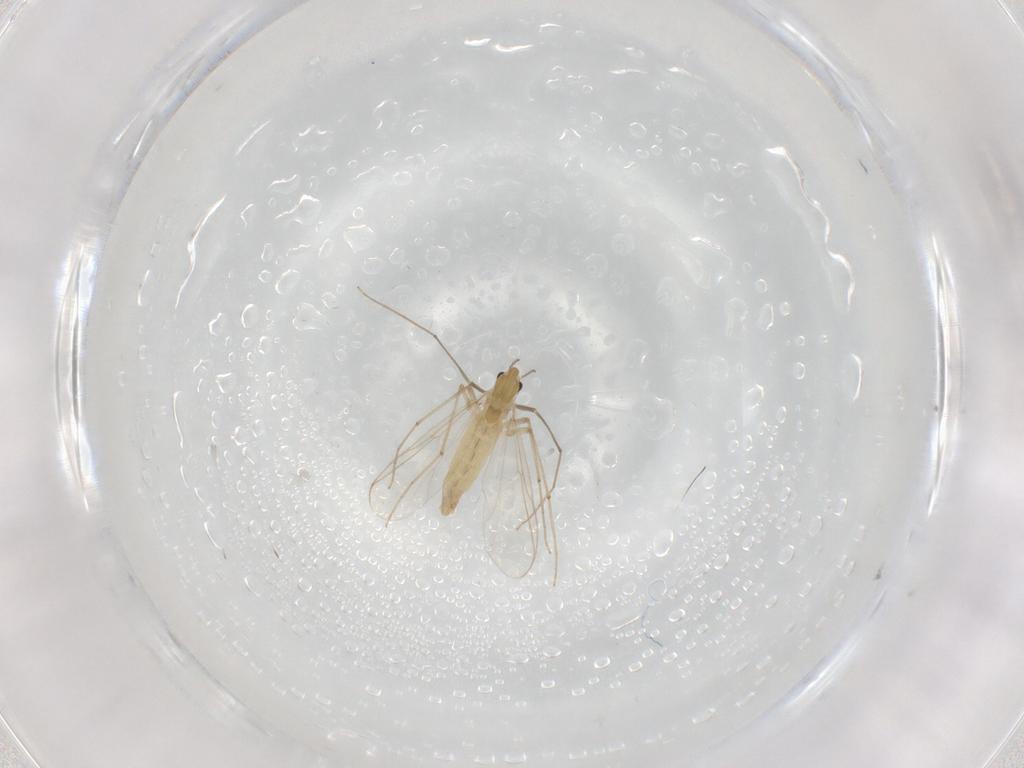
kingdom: Animalia
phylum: Arthropoda
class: Insecta
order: Diptera
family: Chironomidae
